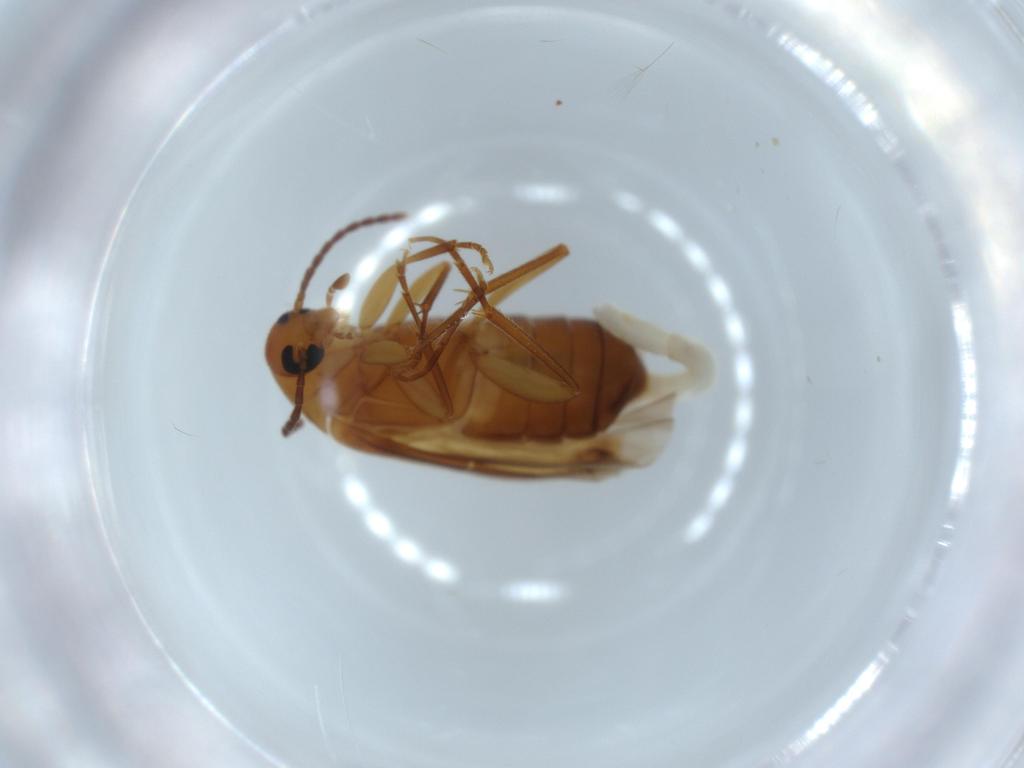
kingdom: Animalia
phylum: Arthropoda
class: Insecta
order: Coleoptera
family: Scraptiidae
